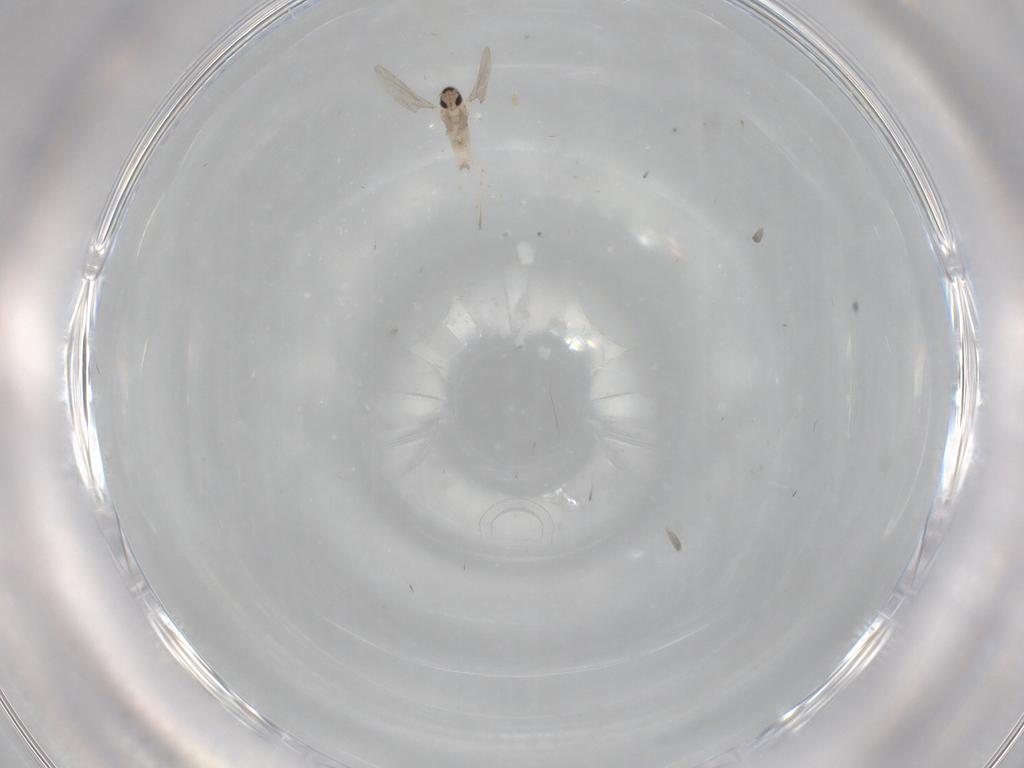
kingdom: Animalia
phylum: Arthropoda
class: Insecta
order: Diptera
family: Cecidomyiidae
